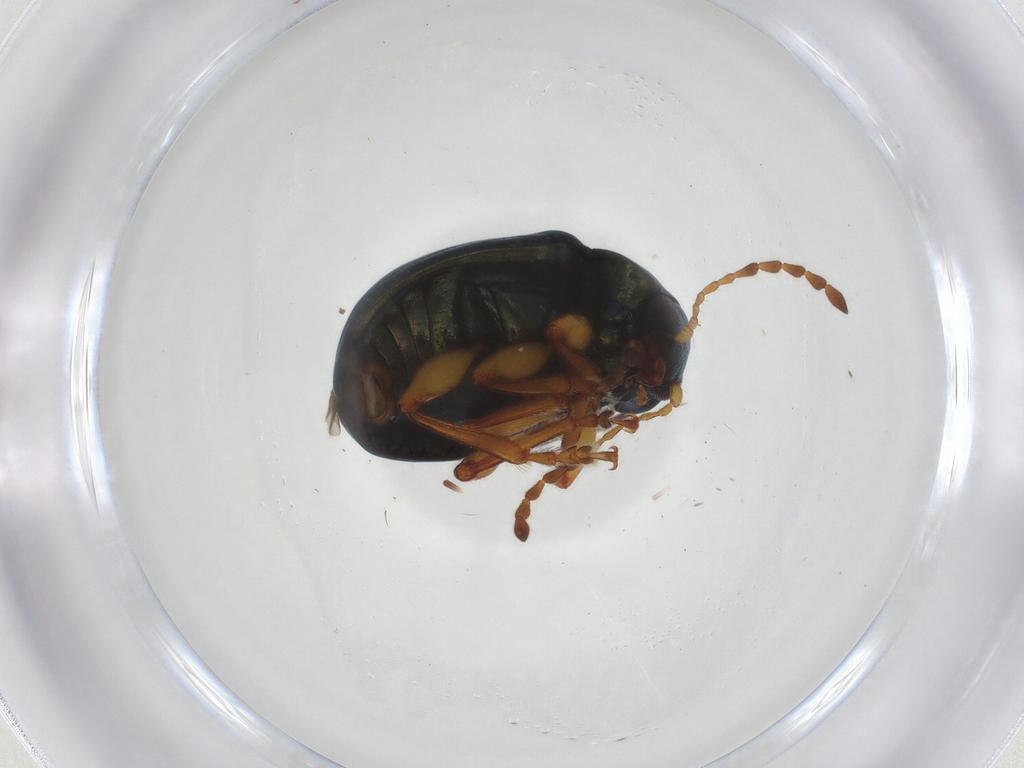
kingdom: Animalia
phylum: Arthropoda
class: Insecta
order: Coleoptera
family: Chrysomelidae
